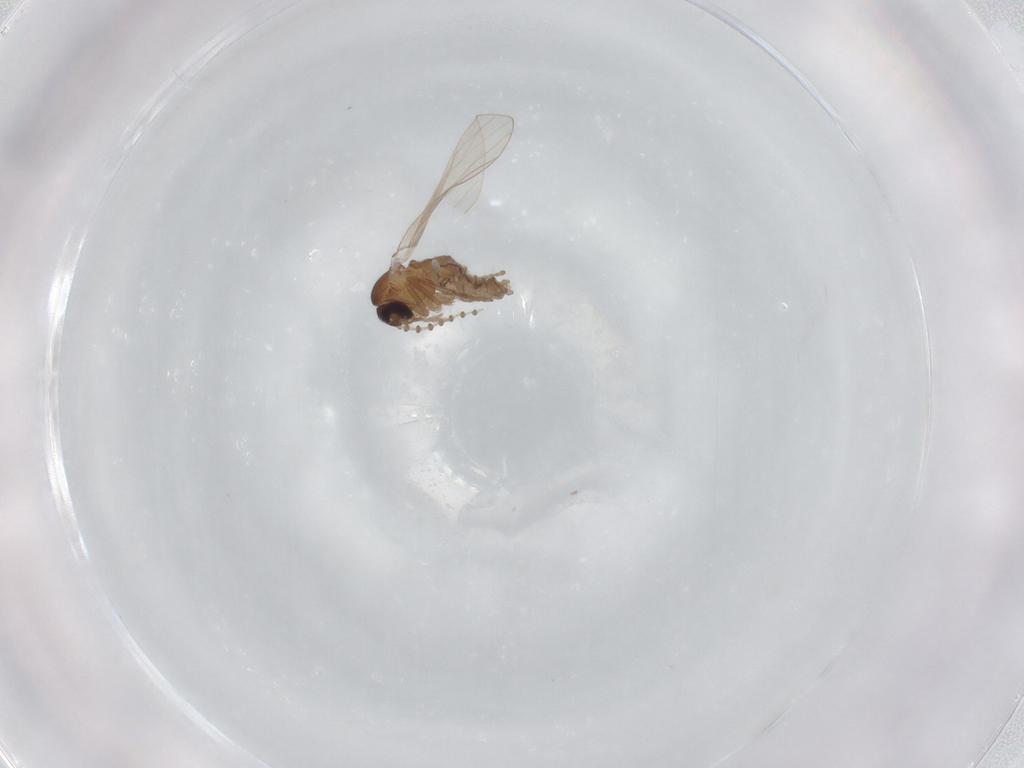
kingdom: Animalia
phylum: Arthropoda
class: Insecta
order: Diptera
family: Psychodidae
